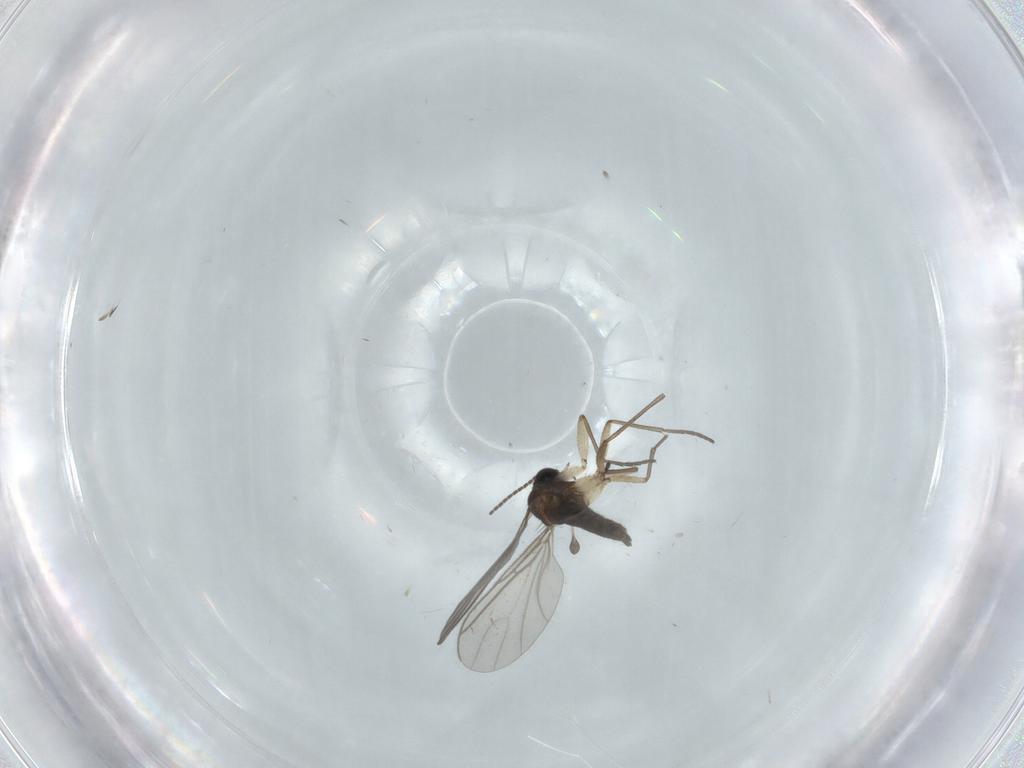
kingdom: Animalia
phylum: Arthropoda
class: Insecta
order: Diptera
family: Sciaridae
